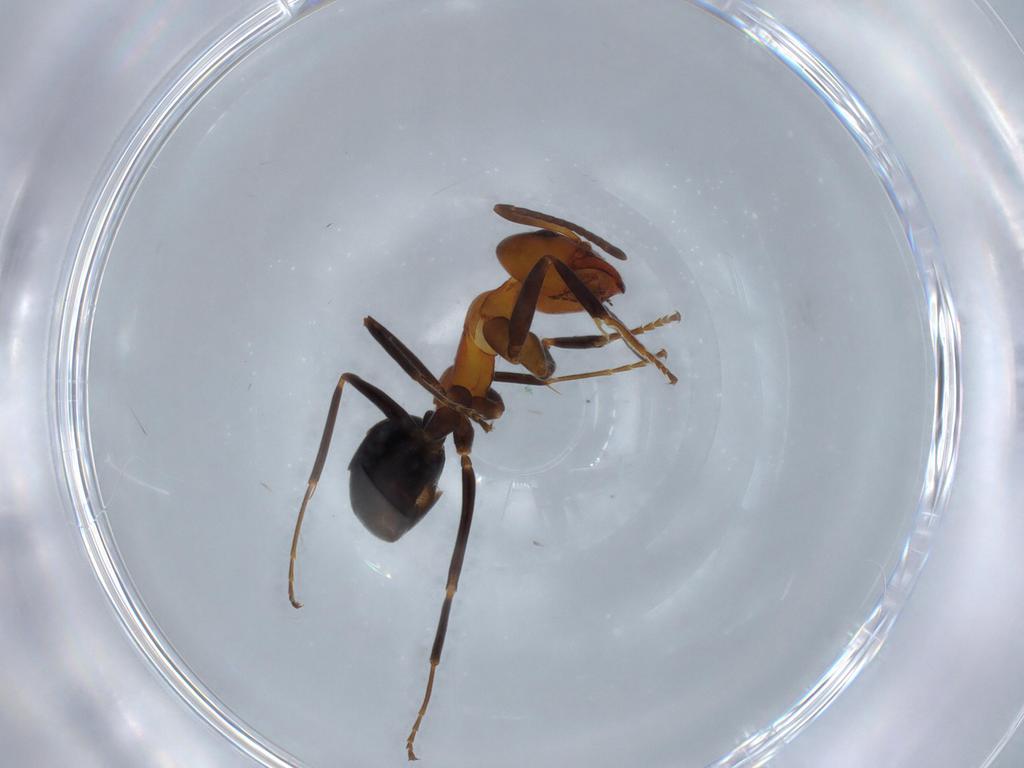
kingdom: Animalia
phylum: Arthropoda
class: Insecta
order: Hymenoptera
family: Formicidae
